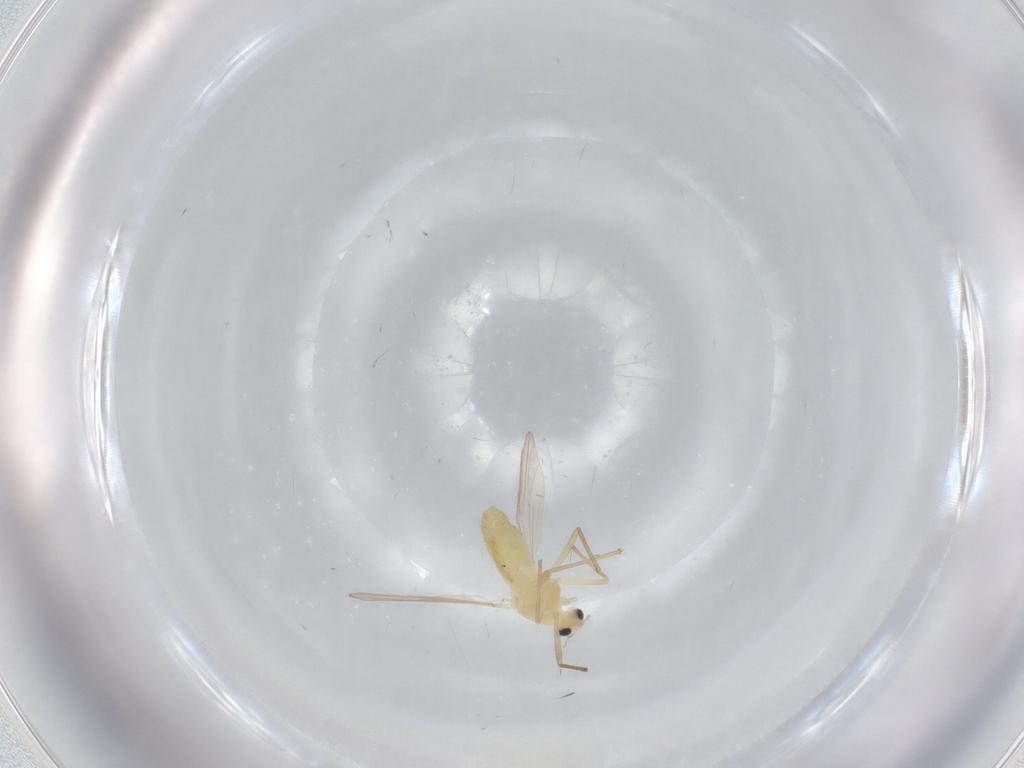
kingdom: Animalia
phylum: Arthropoda
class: Insecta
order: Diptera
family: Chironomidae
